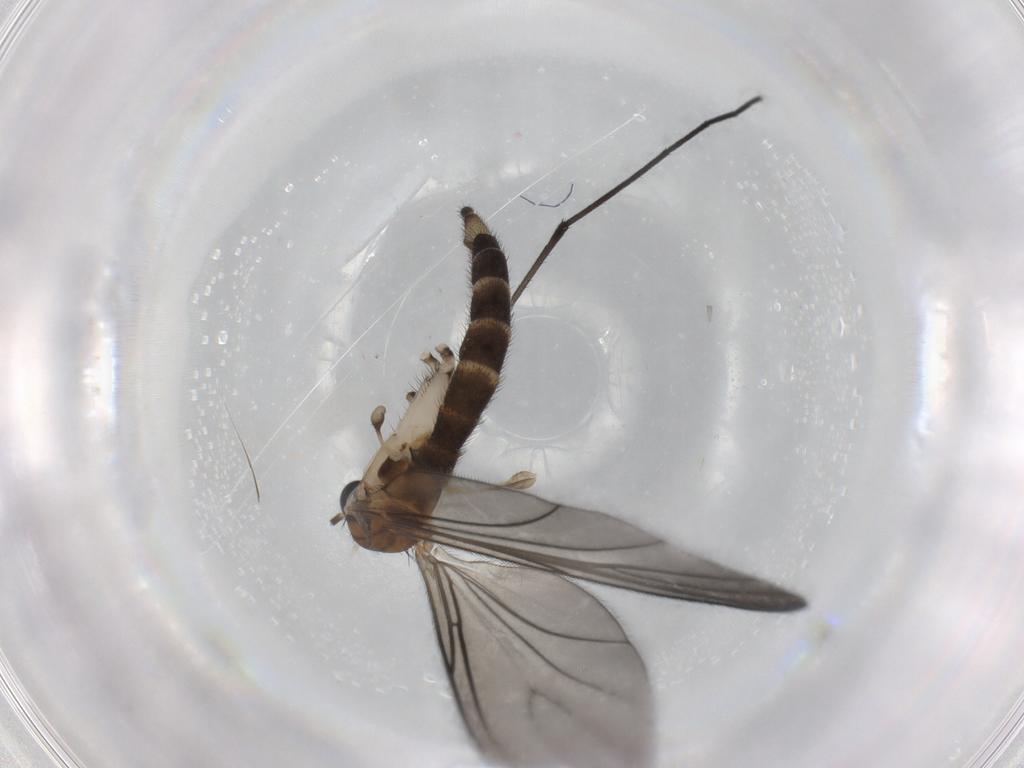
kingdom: Animalia
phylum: Arthropoda
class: Insecta
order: Diptera
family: Sciaridae
